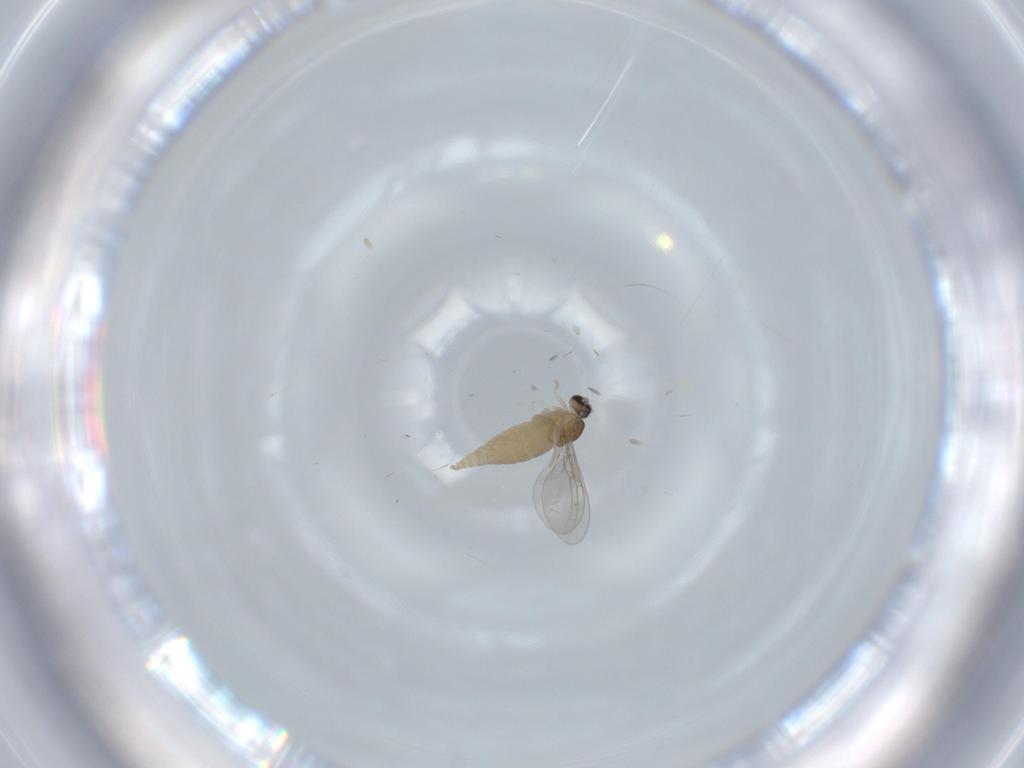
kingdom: Animalia
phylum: Arthropoda
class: Insecta
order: Diptera
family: Cecidomyiidae
